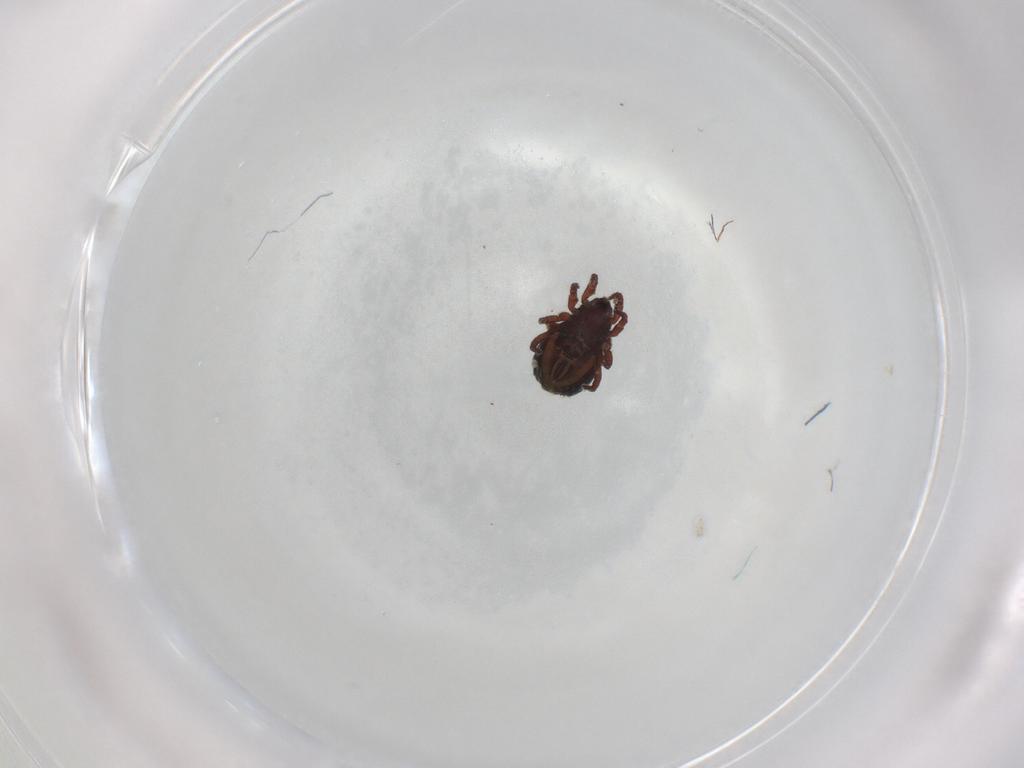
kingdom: Animalia
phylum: Arthropoda
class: Arachnida
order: Sarcoptiformes
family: Crotoniidae
